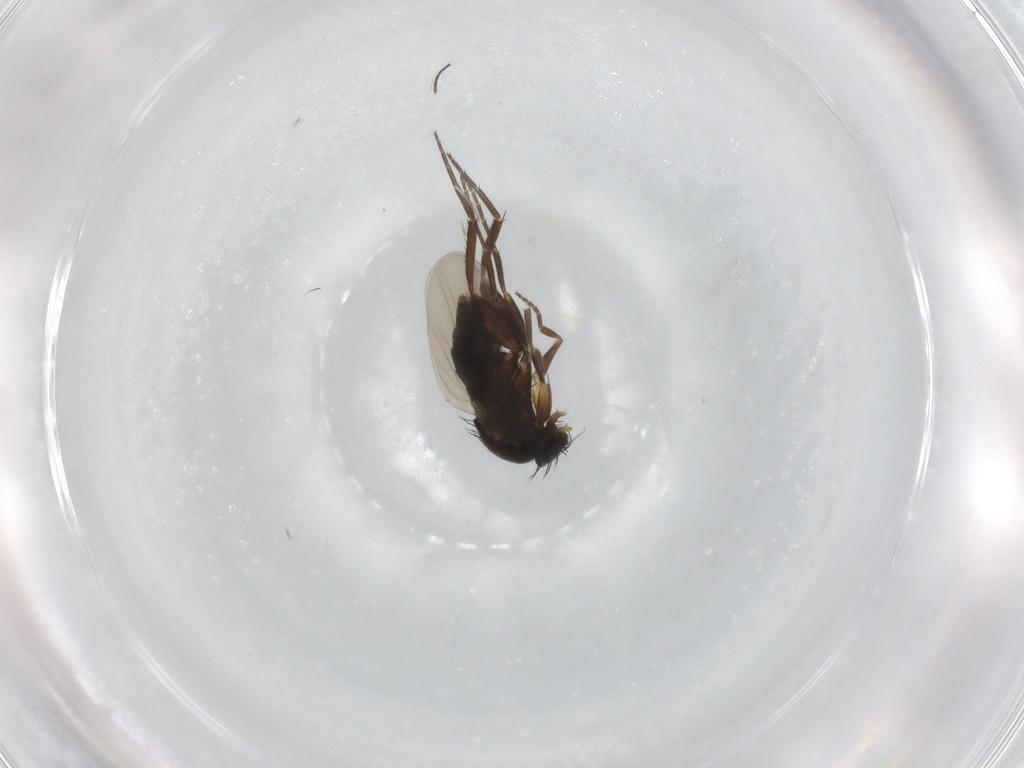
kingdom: Animalia
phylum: Arthropoda
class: Insecta
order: Diptera
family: Phoridae
